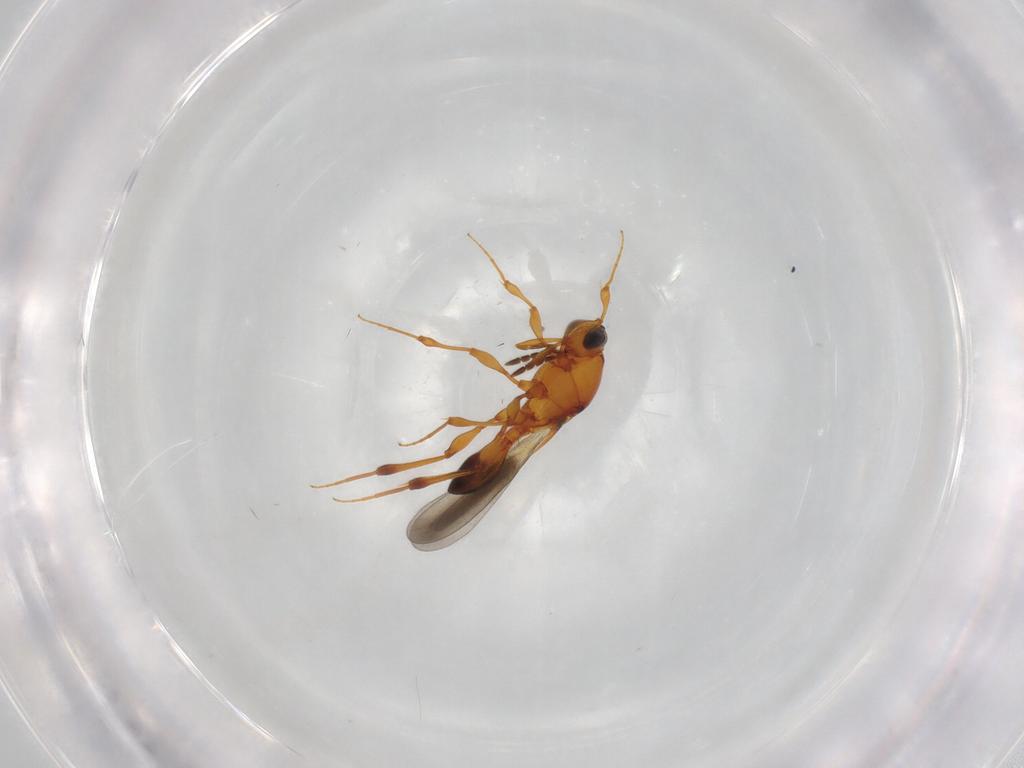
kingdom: Animalia
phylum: Arthropoda
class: Insecta
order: Hymenoptera
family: Platygastridae
